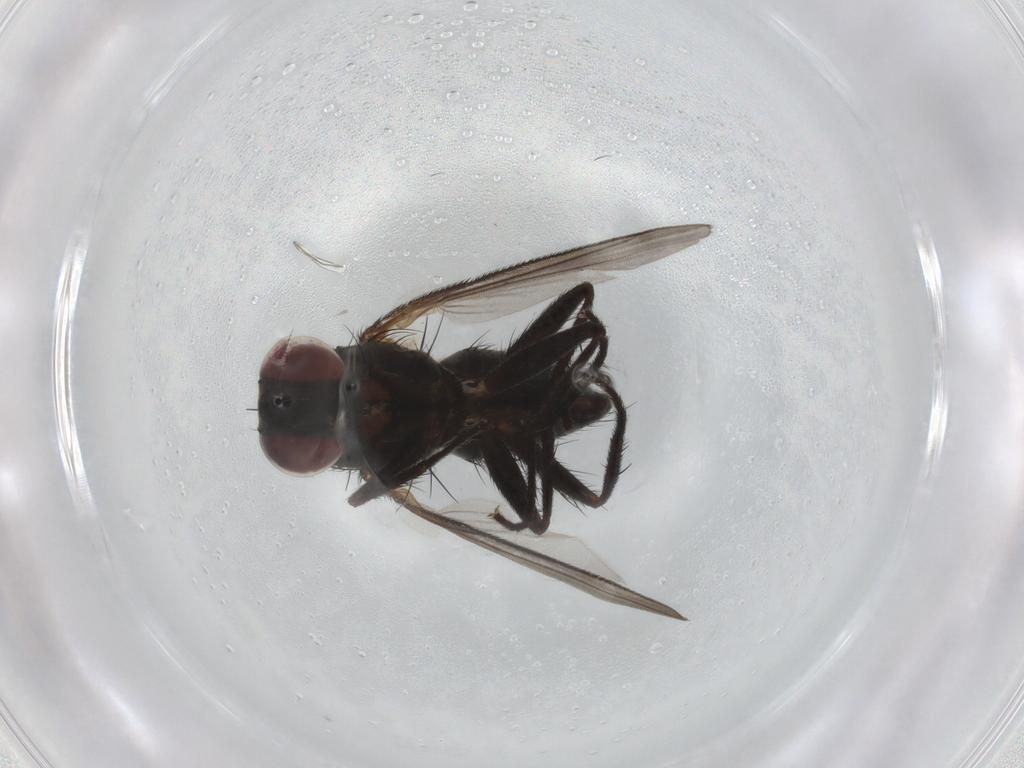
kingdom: Animalia
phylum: Arthropoda
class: Insecta
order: Diptera
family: Muscidae
